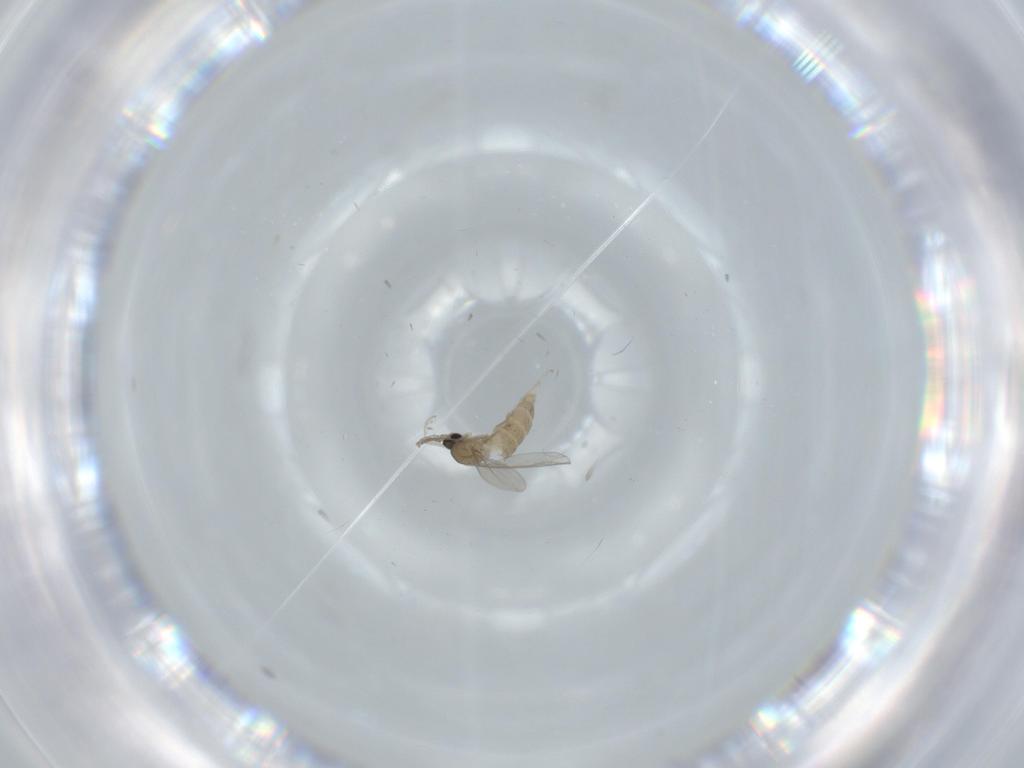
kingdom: Animalia
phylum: Arthropoda
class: Insecta
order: Diptera
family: Cecidomyiidae
